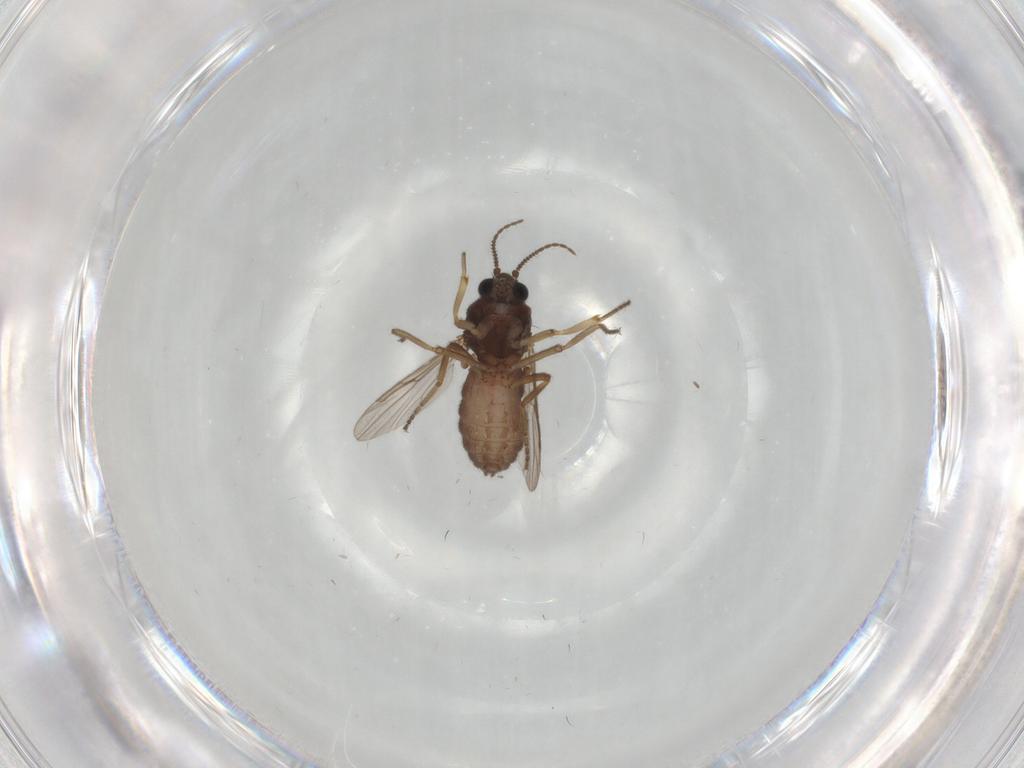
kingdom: Animalia
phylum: Arthropoda
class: Insecta
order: Diptera
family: Ceratopogonidae
